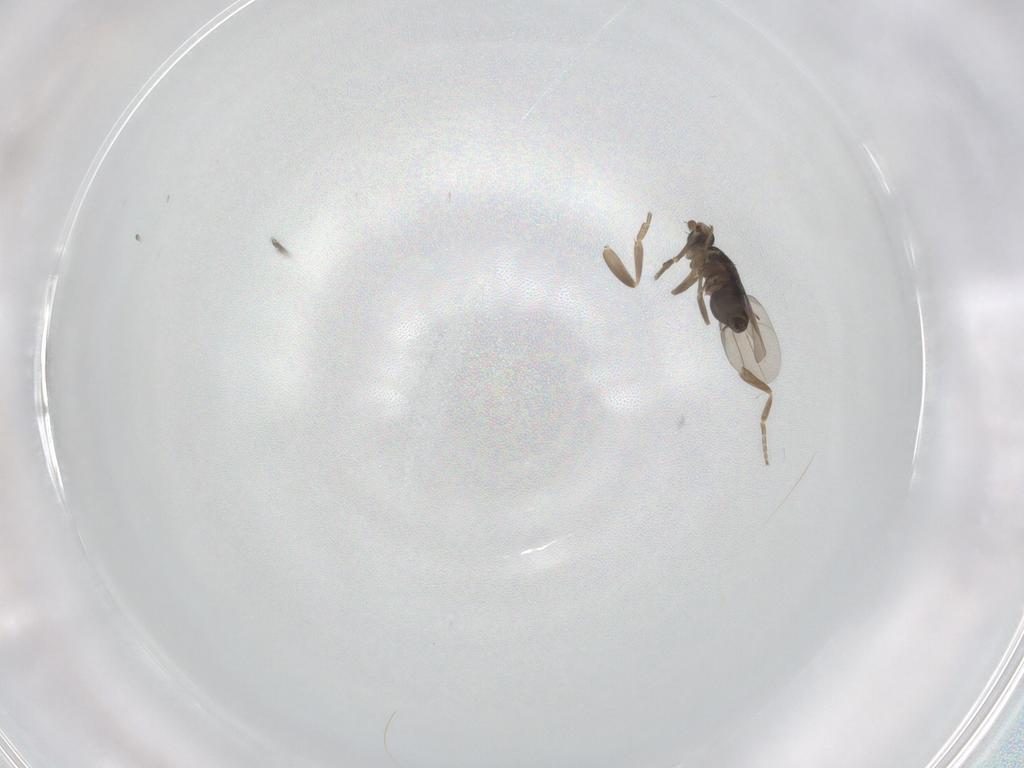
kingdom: Animalia
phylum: Arthropoda
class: Insecta
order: Diptera
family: Phoridae
